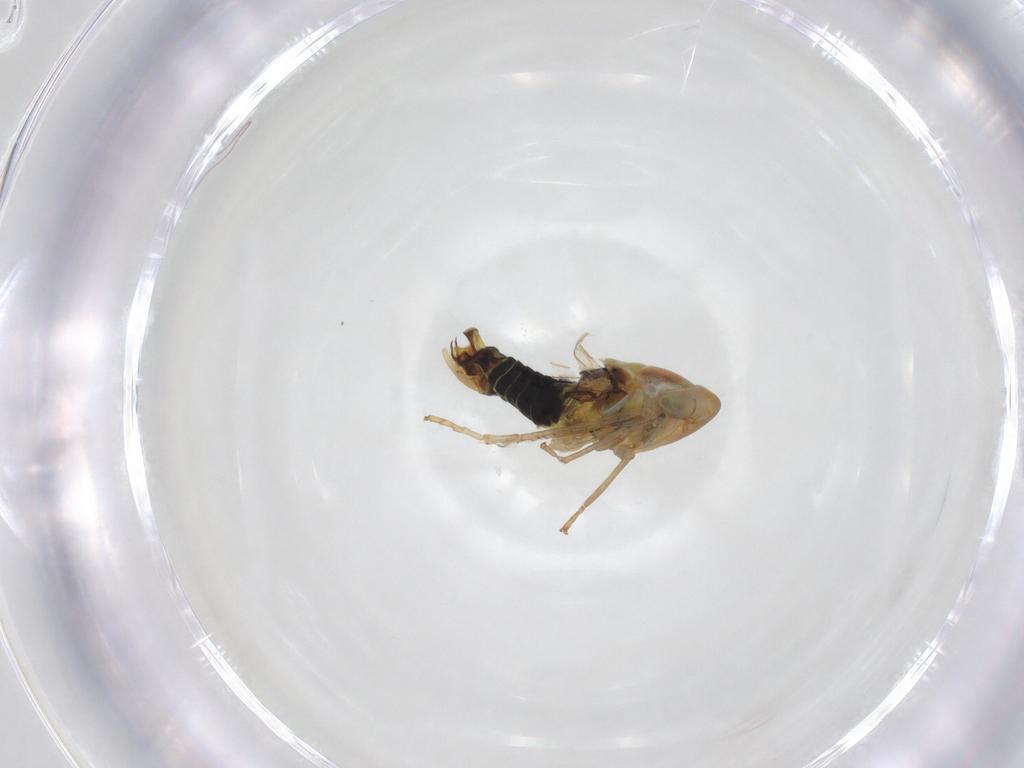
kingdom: Animalia
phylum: Arthropoda
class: Insecta
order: Hemiptera
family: Cicadellidae
